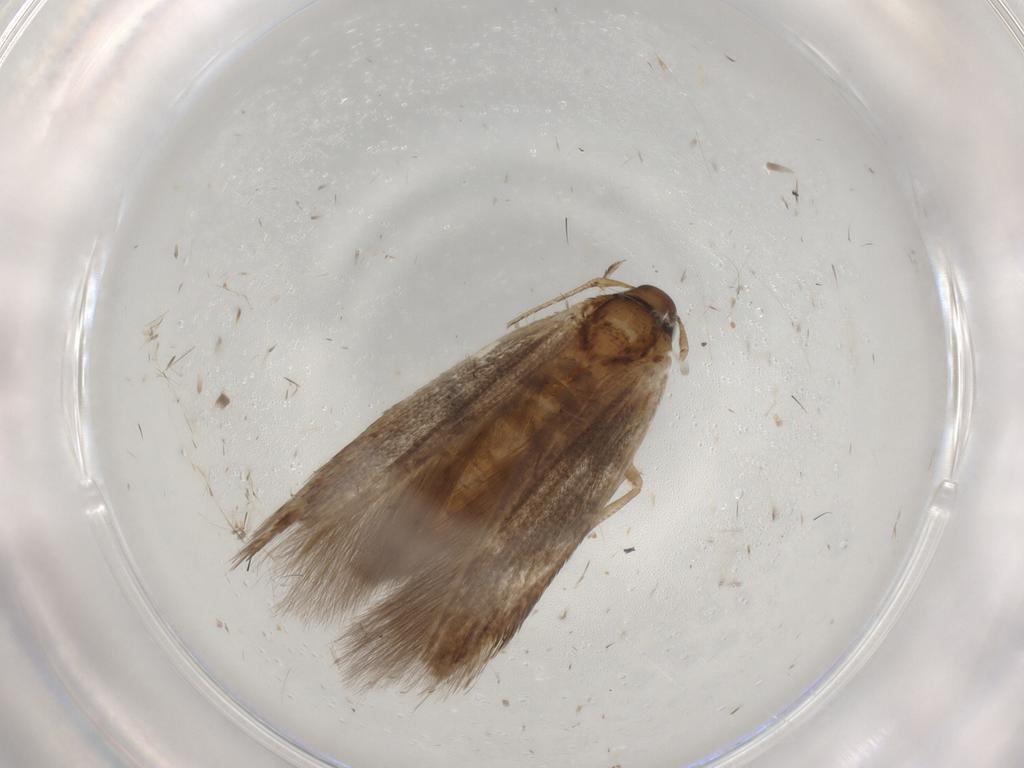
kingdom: Animalia
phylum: Arthropoda
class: Insecta
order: Lepidoptera
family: Cosmopterigidae
